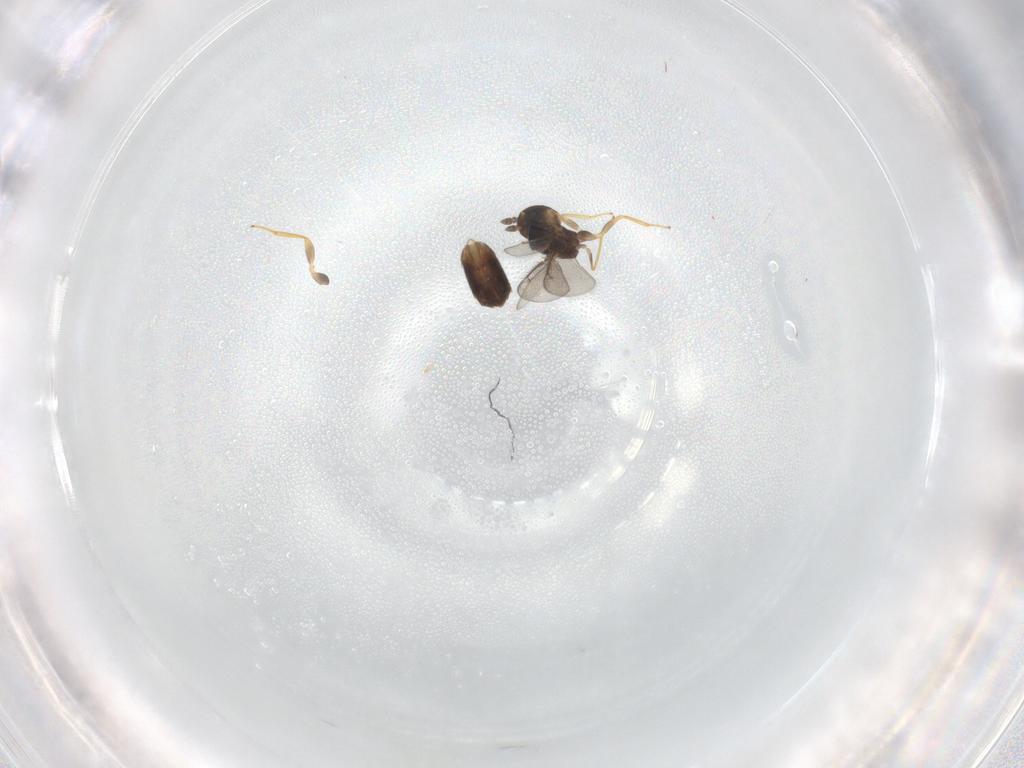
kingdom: Animalia
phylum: Arthropoda
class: Insecta
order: Hymenoptera
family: Eulophidae
